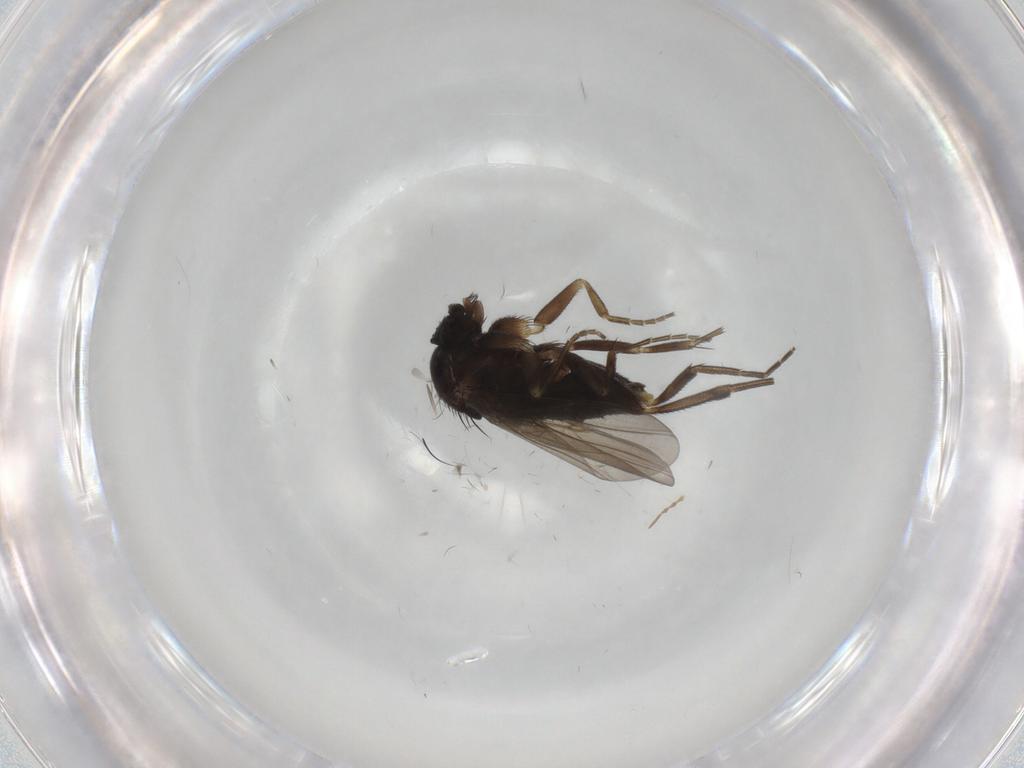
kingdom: Animalia
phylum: Arthropoda
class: Insecta
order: Diptera
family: Phoridae
